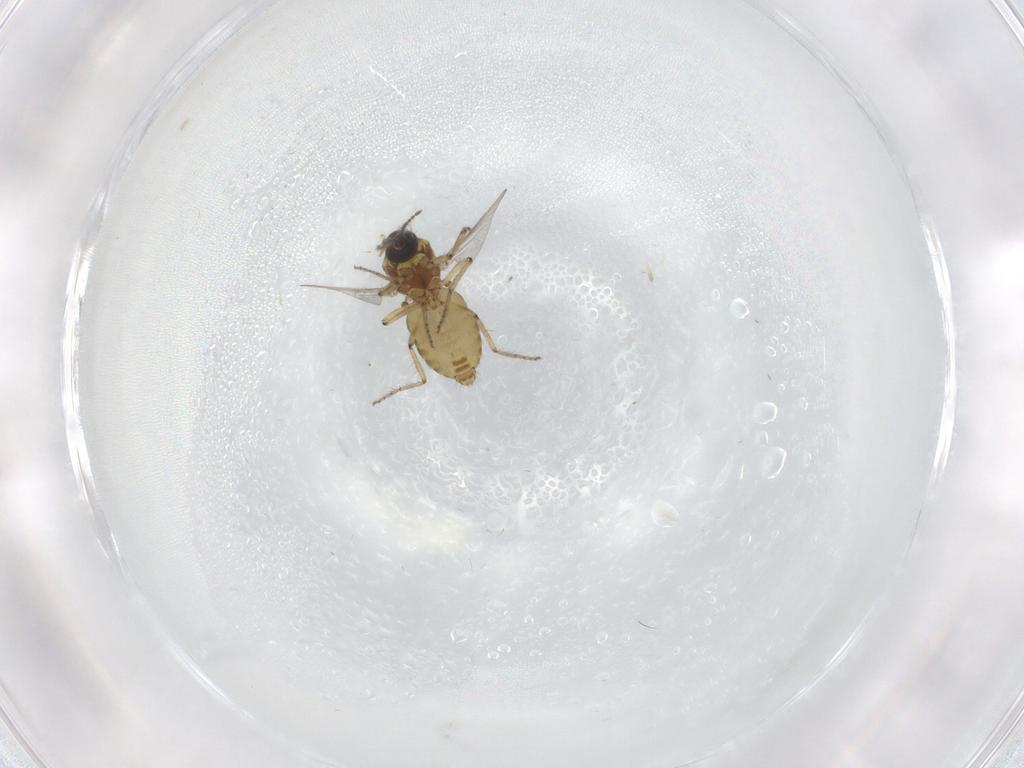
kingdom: Animalia
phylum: Arthropoda
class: Insecta
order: Diptera
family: Ceratopogonidae
